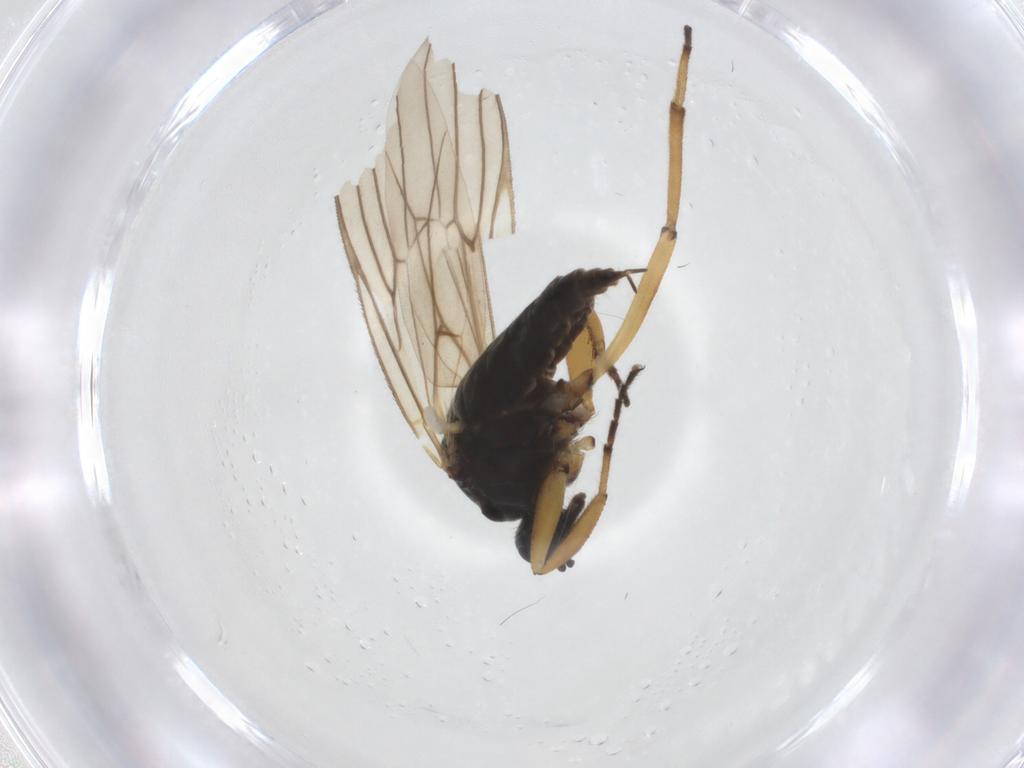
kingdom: Animalia
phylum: Arthropoda
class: Insecta
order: Diptera
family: Hybotidae
